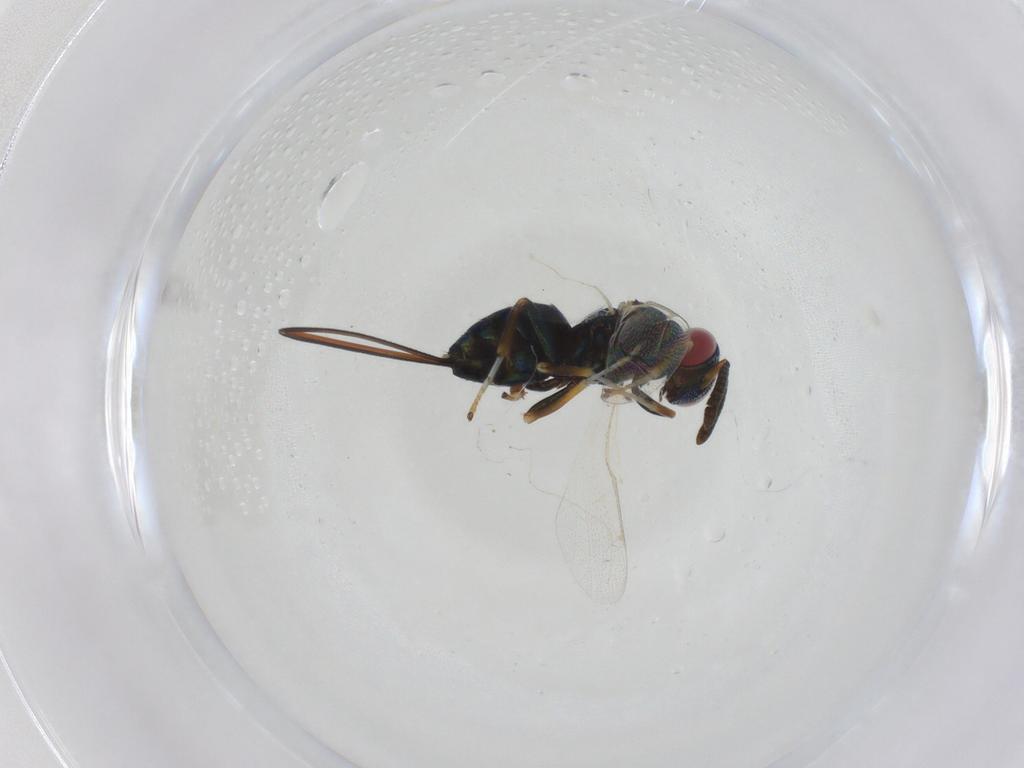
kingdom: Animalia
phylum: Arthropoda
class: Insecta
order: Hymenoptera
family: Torymidae
